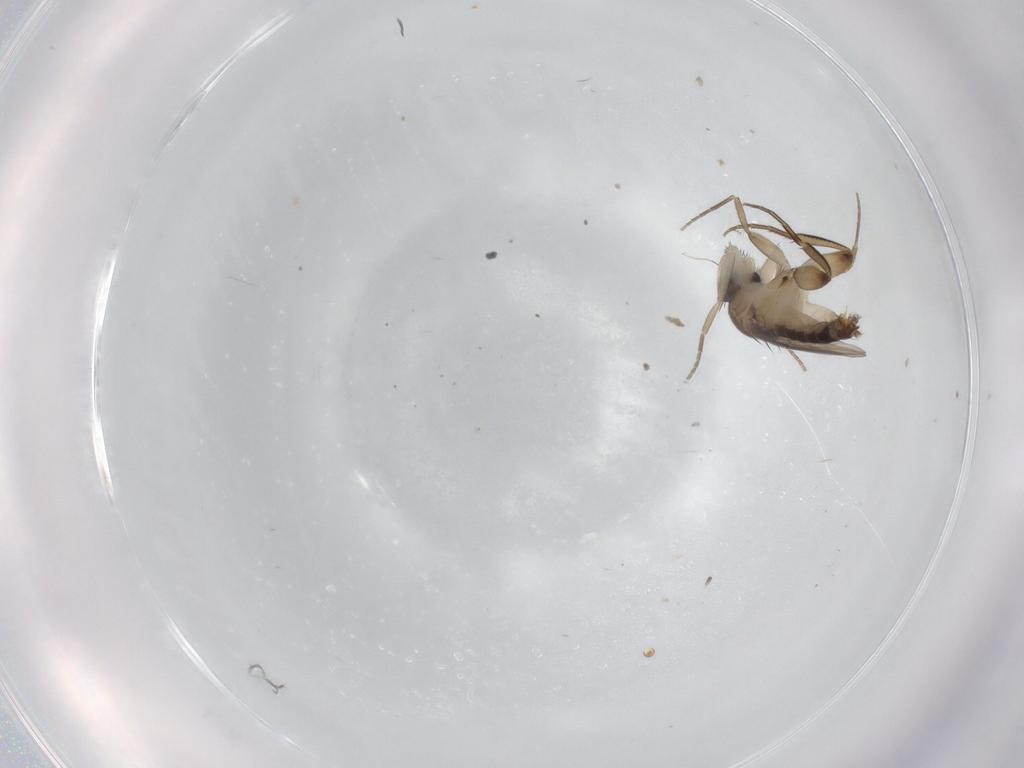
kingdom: Animalia
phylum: Arthropoda
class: Insecta
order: Diptera
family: Phoridae
